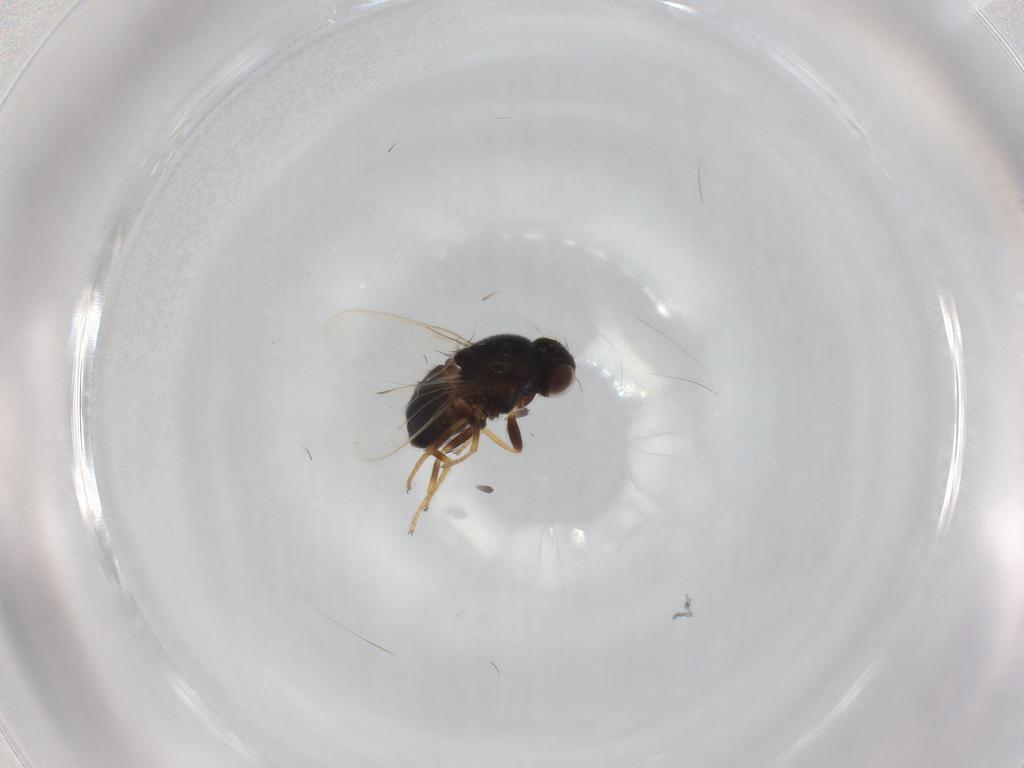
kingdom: Animalia
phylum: Arthropoda
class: Insecta
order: Diptera
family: Chloropidae
